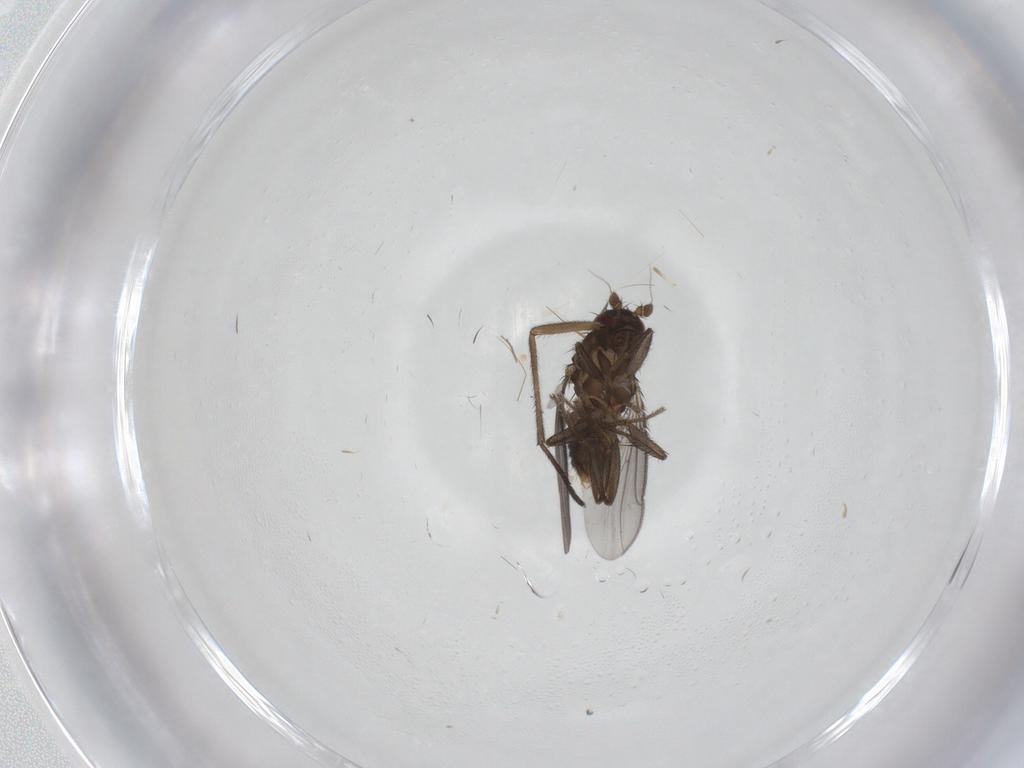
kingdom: Animalia
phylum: Arthropoda
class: Insecta
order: Diptera
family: Sphaeroceridae
